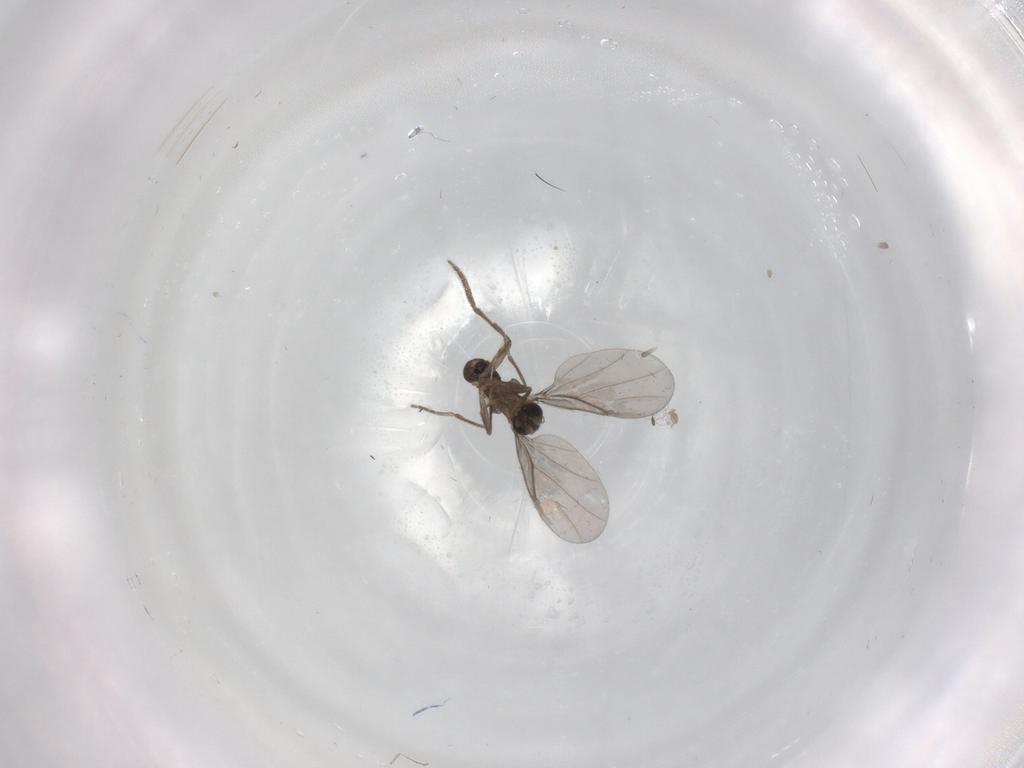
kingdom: Animalia
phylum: Arthropoda
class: Insecta
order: Diptera
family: Cecidomyiidae
